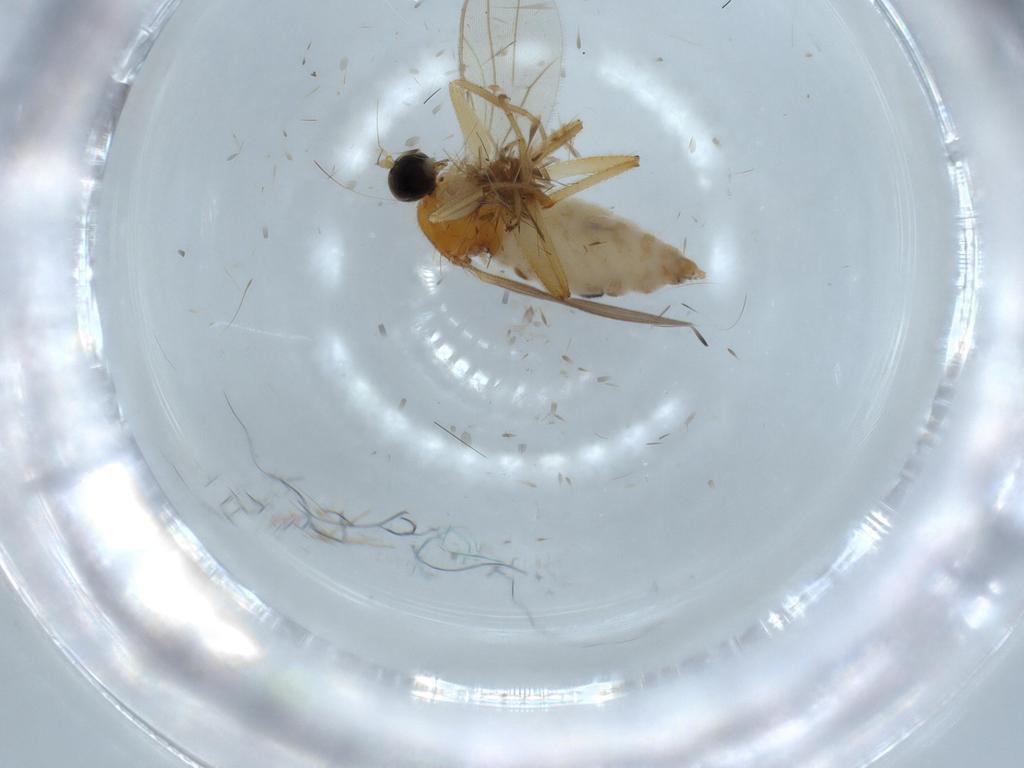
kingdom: Animalia
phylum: Arthropoda
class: Insecta
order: Diptera
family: Hybotidae
